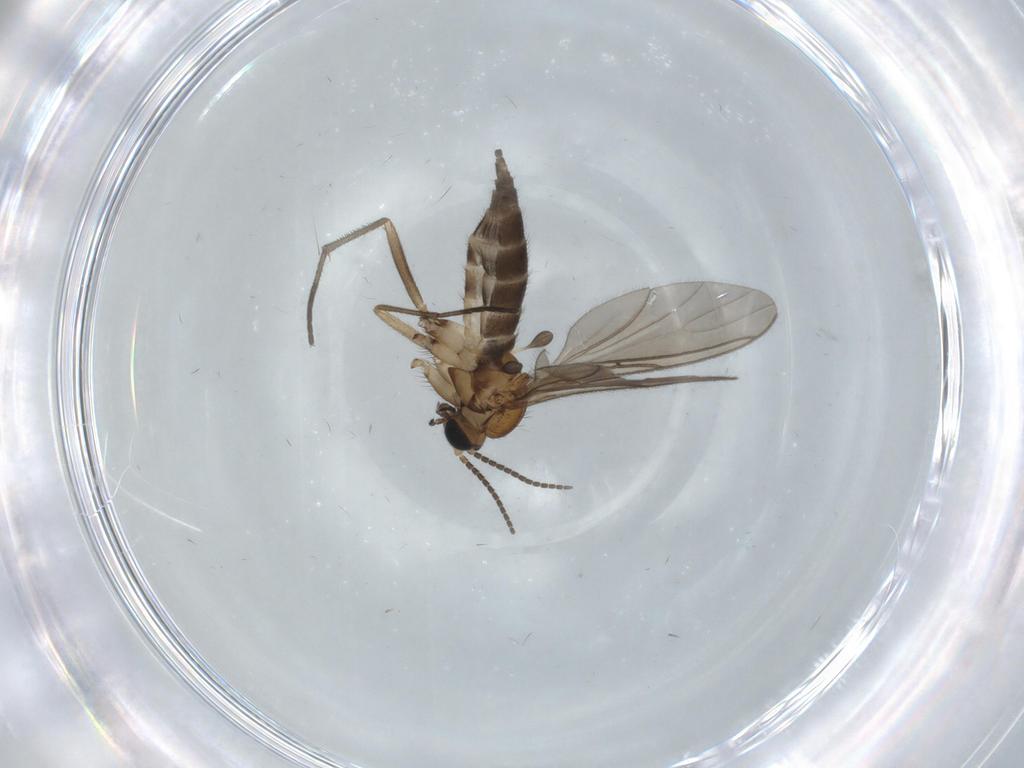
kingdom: Animalia
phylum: Arthropoda
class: Insecta
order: Diptera
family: Sciaridae
